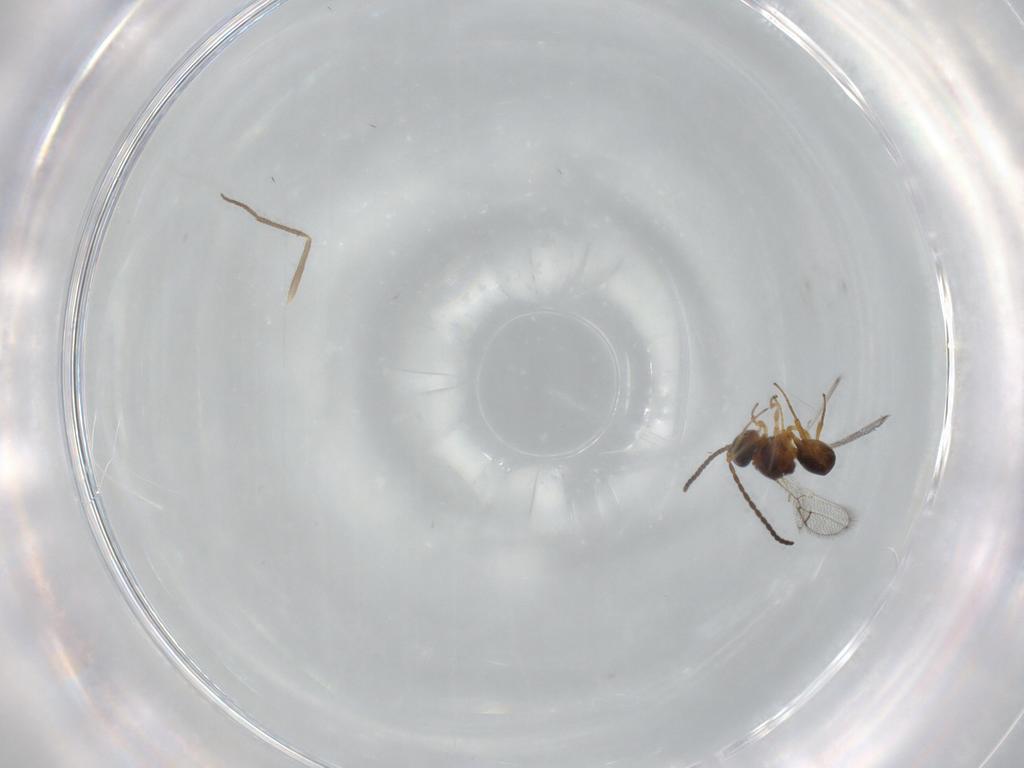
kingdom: Animalia
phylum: Arthropoda
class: Insecta
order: Hymenoptera
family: Figitidae
